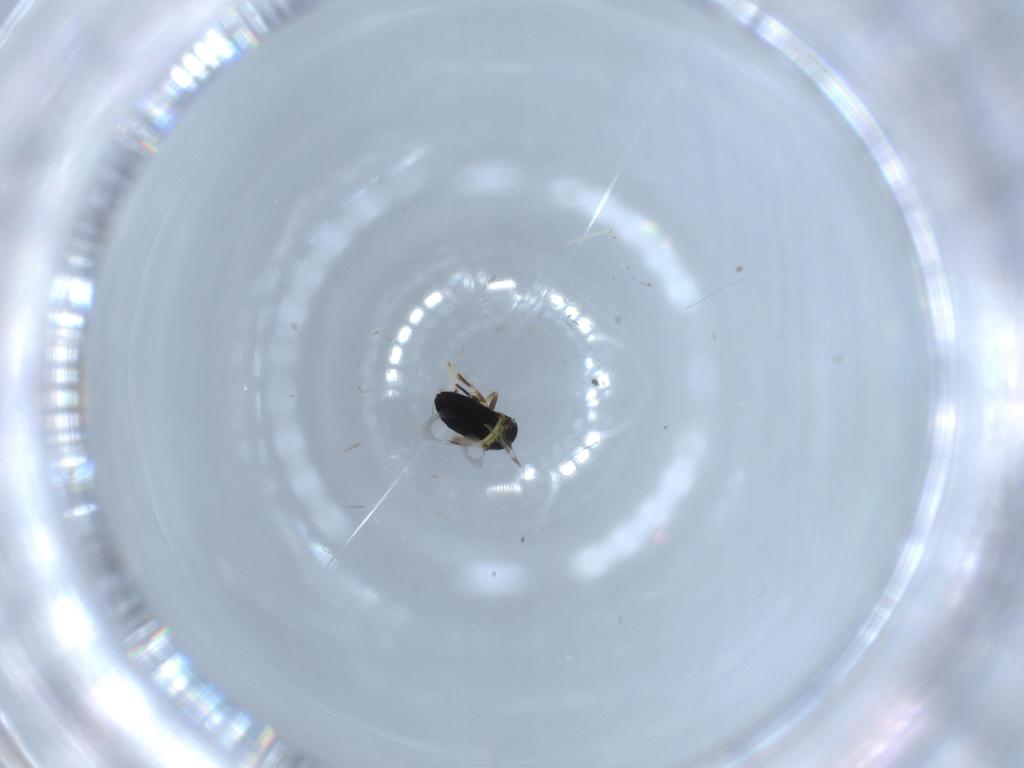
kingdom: Animalia
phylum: Arthropoda
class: Insecta
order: Hymenoptera
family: Signiphoridae
